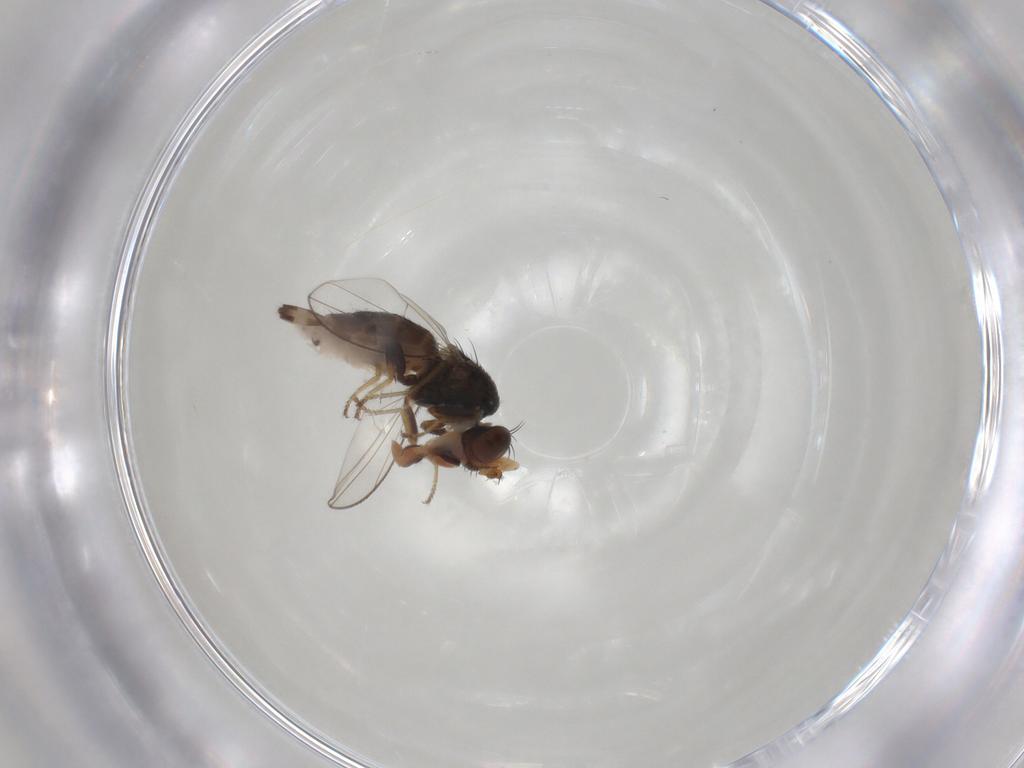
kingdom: Animalia
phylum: Arthropoda
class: Insecta
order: Diptera
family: Ephydridae
